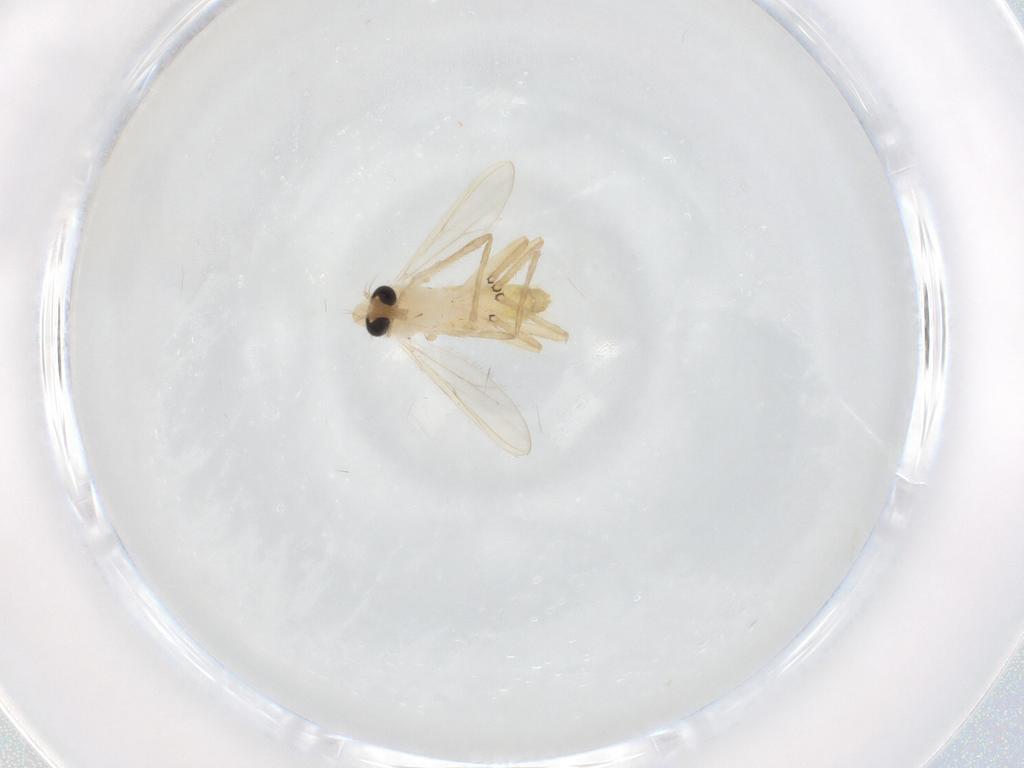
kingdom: Animalia
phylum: Arthropoda
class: Insecta
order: Diptera
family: Chironomidae
